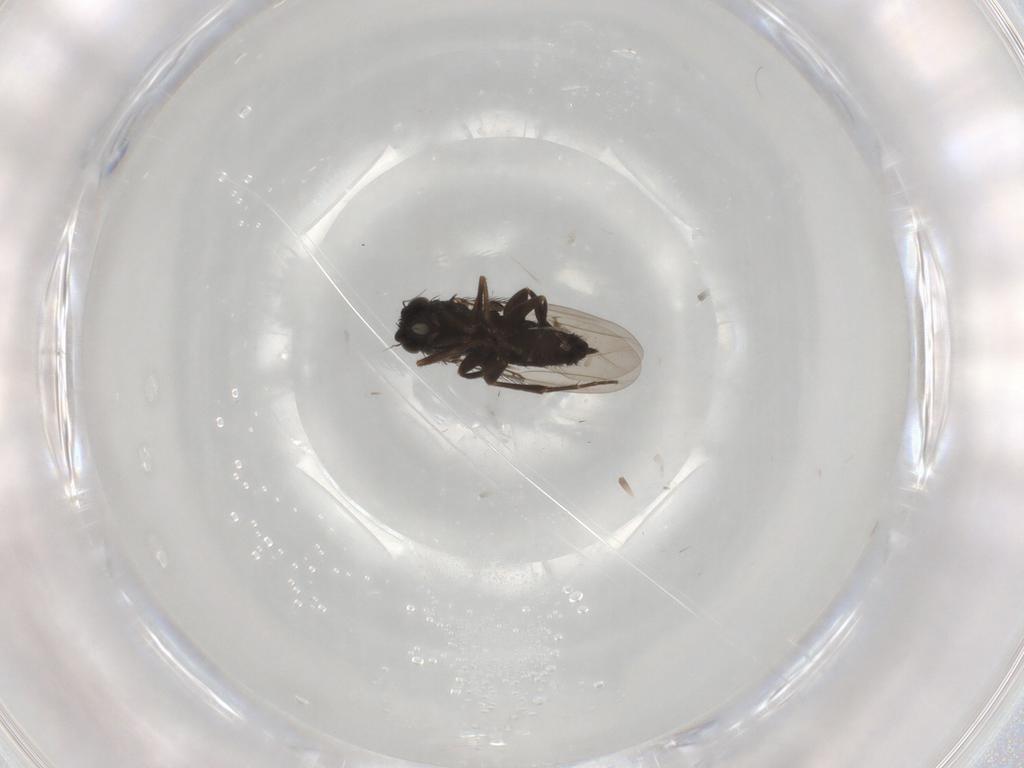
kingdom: Animalia
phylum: Arthropoda
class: Insecta
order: Diptera
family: Phoridae
